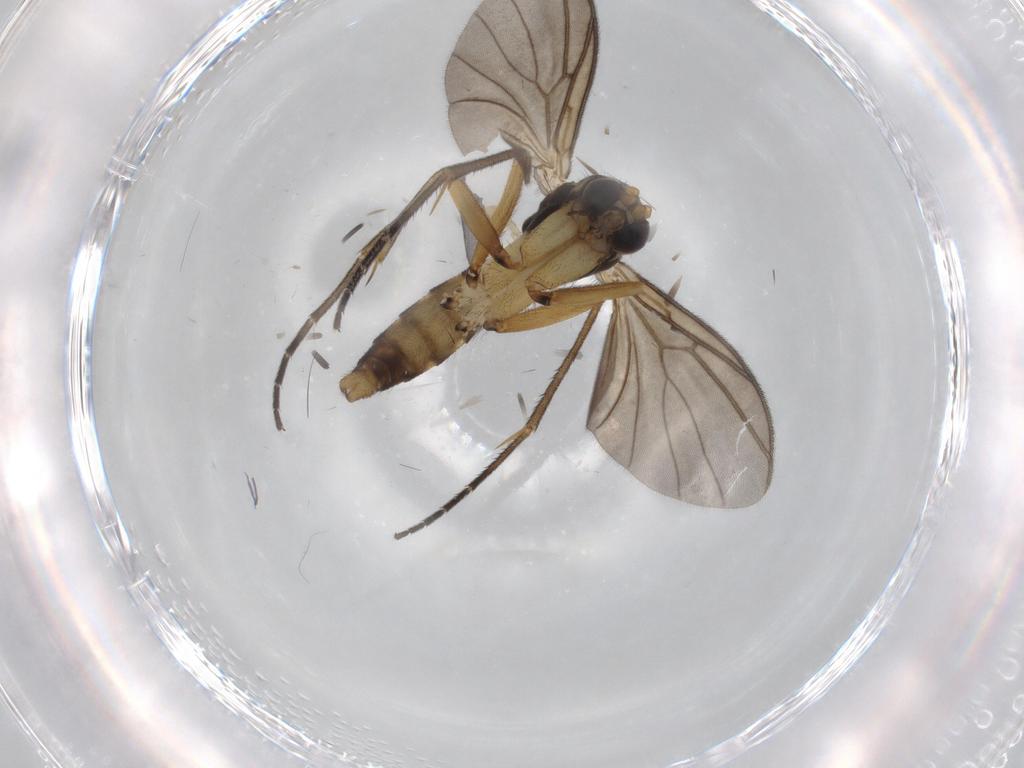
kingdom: Animalia
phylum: Arthropoda
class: Insecta
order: Diptera
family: Sciaridae
